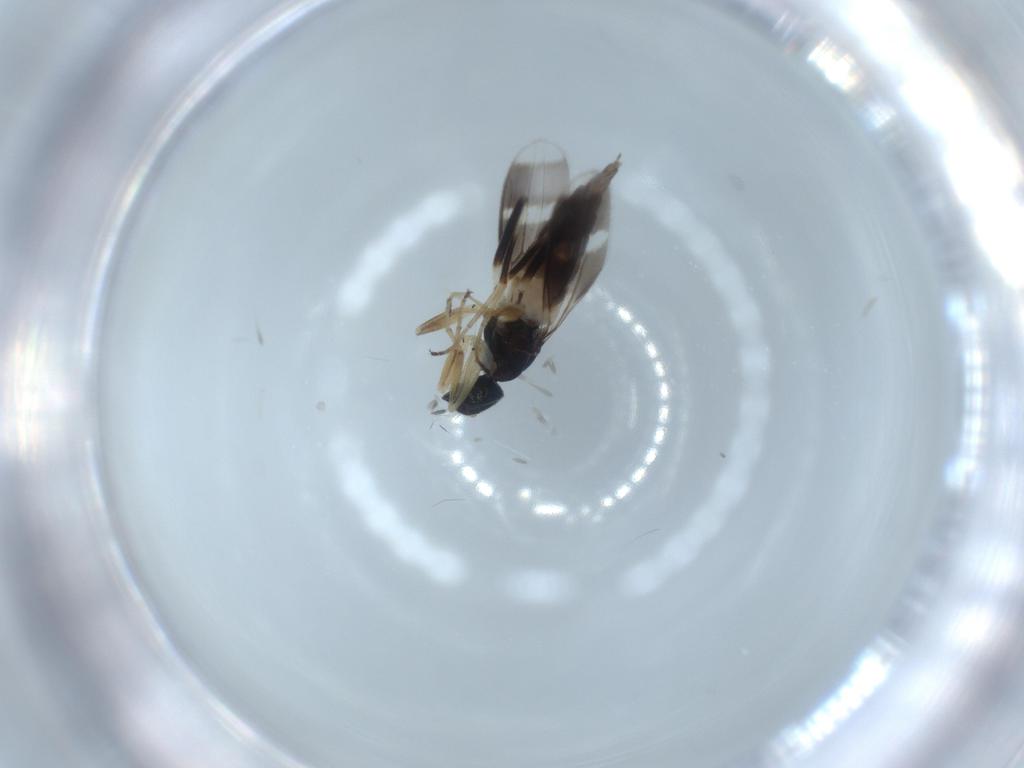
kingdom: Animalia
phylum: Arthropoda
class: Insecta
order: Diptera
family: Hybotidae
